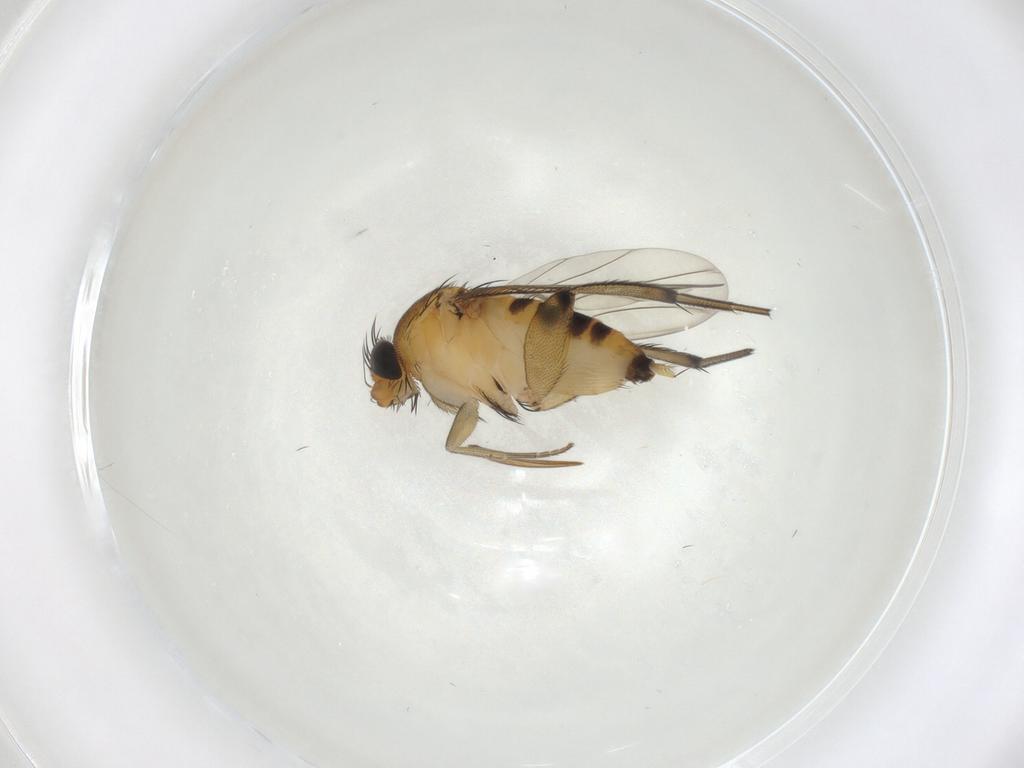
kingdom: Animalia
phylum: Arthropoda
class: Insecta
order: Diptera
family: Phoridae
